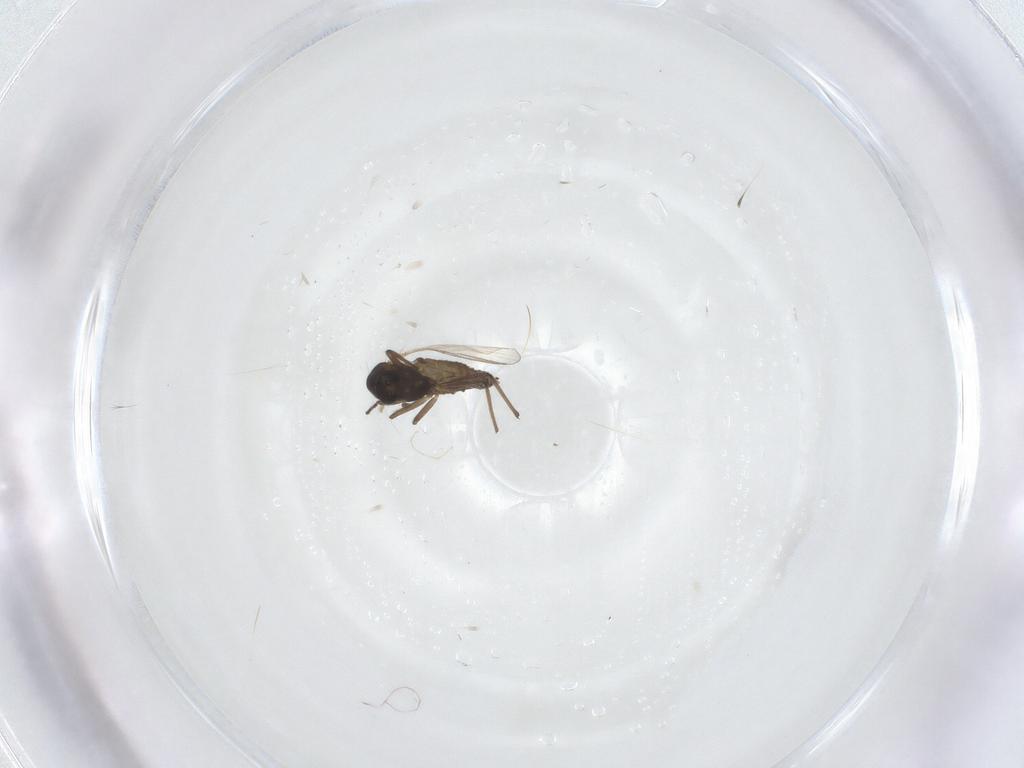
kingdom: Animalia
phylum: Arthropoda
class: Insecta
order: Diptera
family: Chironomidae
